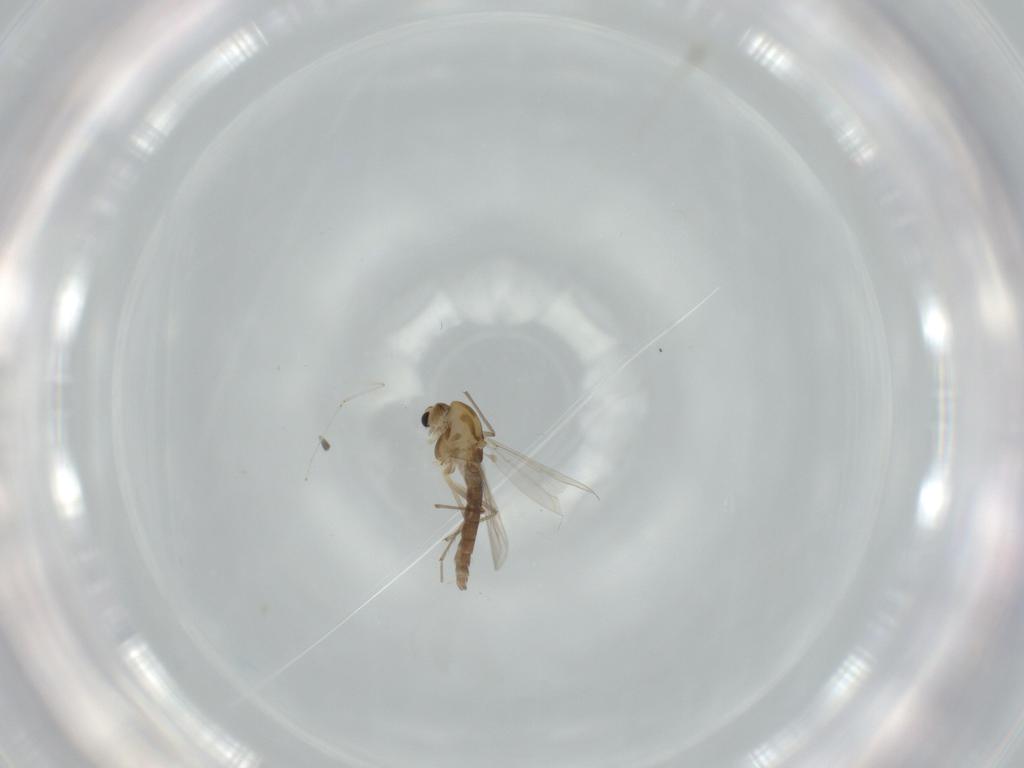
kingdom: Animalia
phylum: Arthropoda
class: Insecta
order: Diptera
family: Chironomidae
